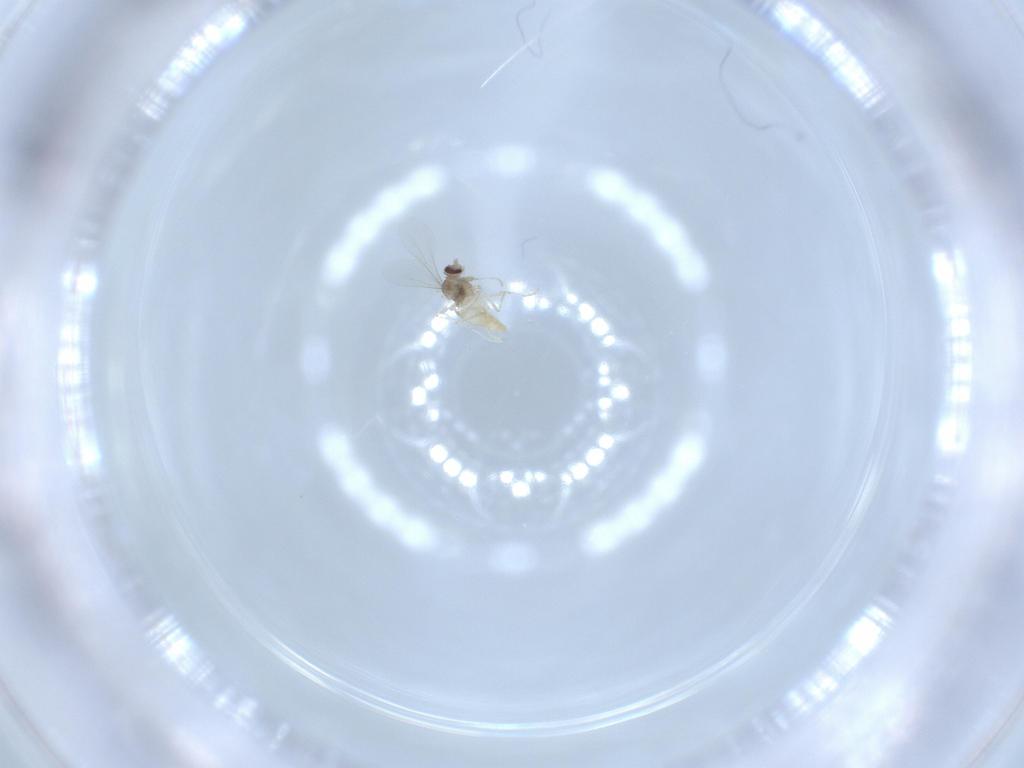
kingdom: Animalia
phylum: Arthropoda
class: Insecta
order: Diptera
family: Cecidomyiidae
